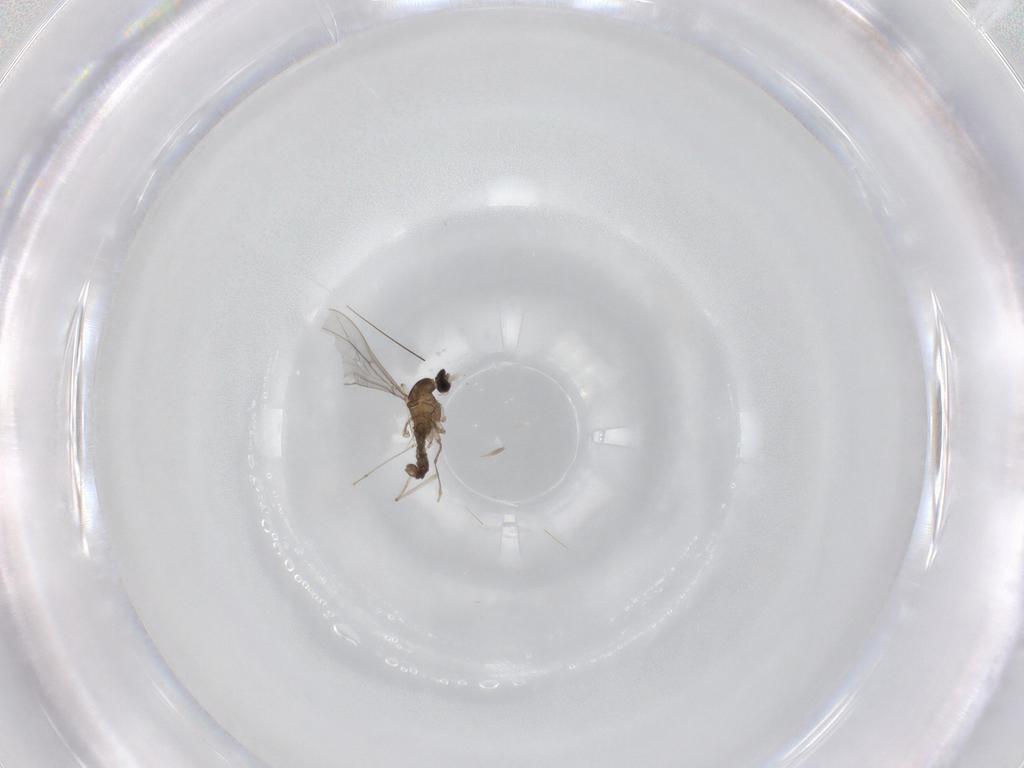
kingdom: Animalia
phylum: Arthropoda
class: Insecta
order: Diptera
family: Cecidomyiidae
